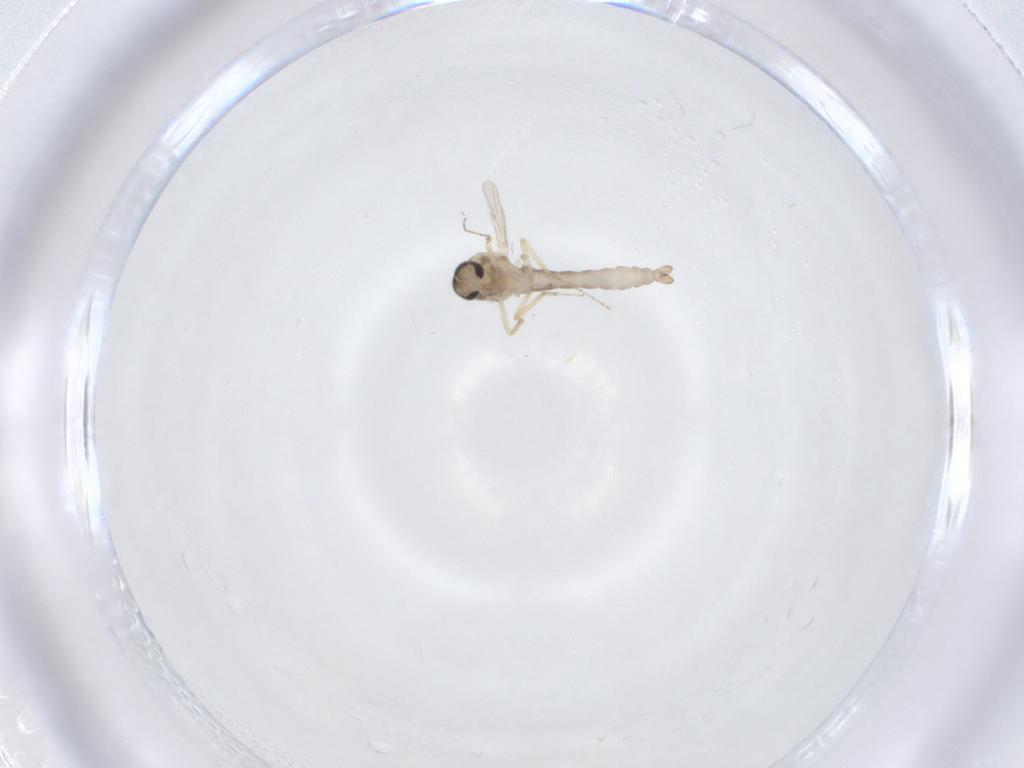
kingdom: Animalia
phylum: Arthropoda
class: Insecta
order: Diptera
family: Ceratopogonidae
